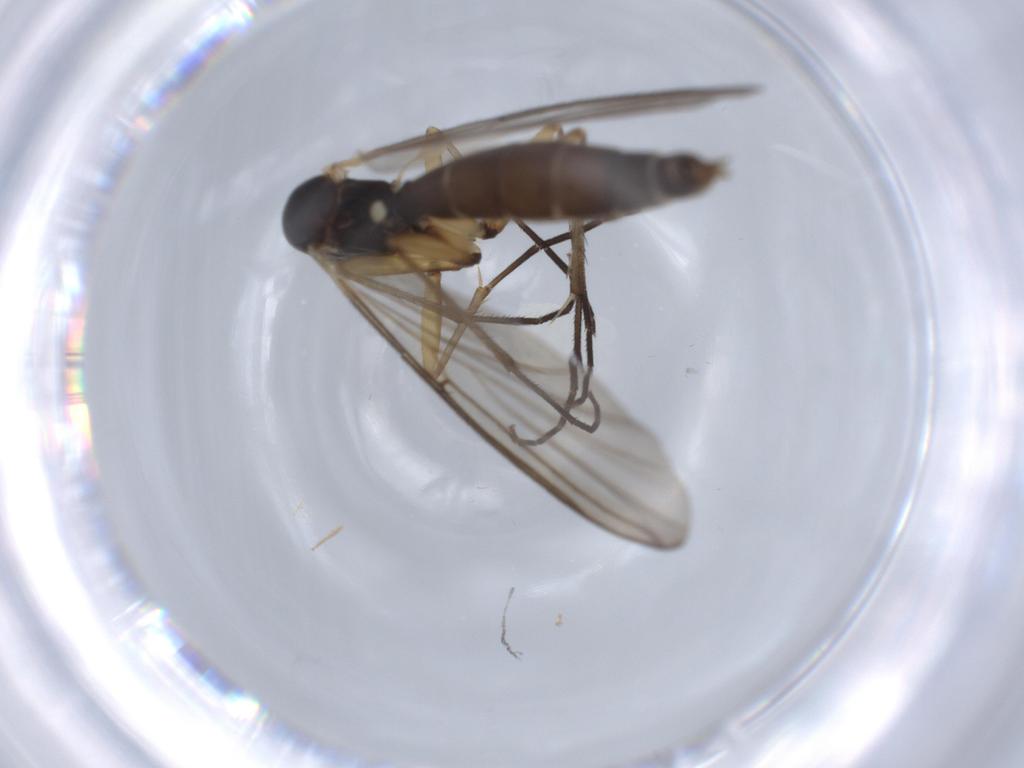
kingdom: Animalia
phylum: Arthropoda
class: Insecta
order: Diptera
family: Mycetophilidae
